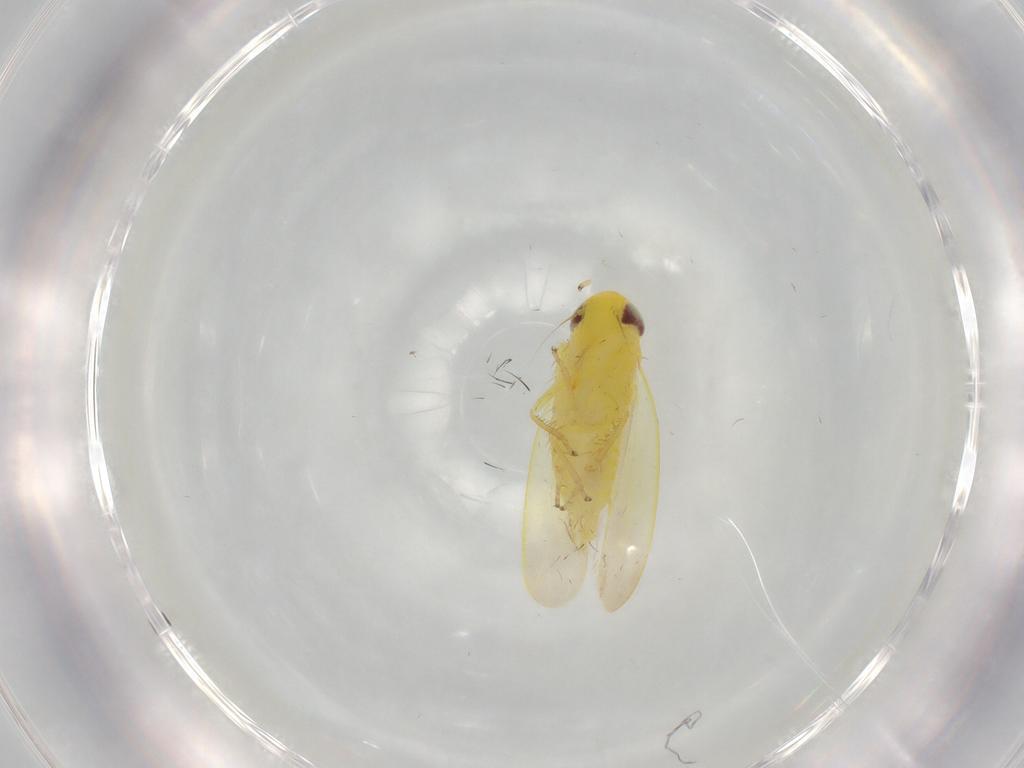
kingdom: Animalia
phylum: Arthropoda
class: Insecta
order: Hemiptera
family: Cicadellidae
